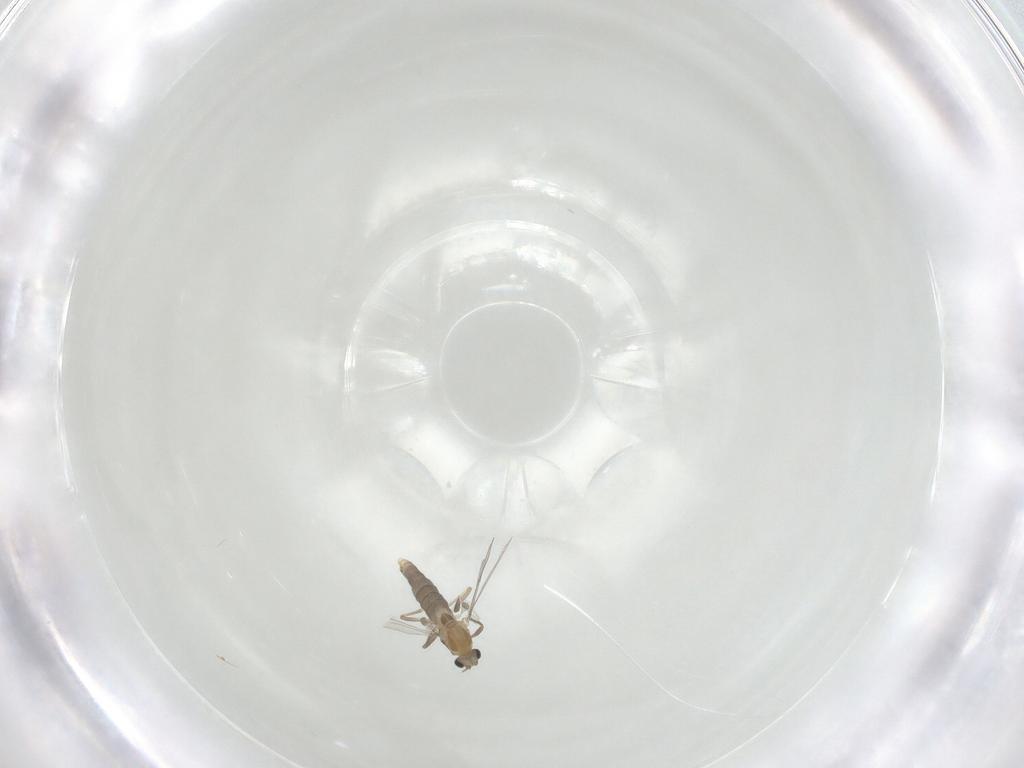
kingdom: Animalia
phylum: Arthropoda
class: Insecta
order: Diptera
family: Chironomidae
